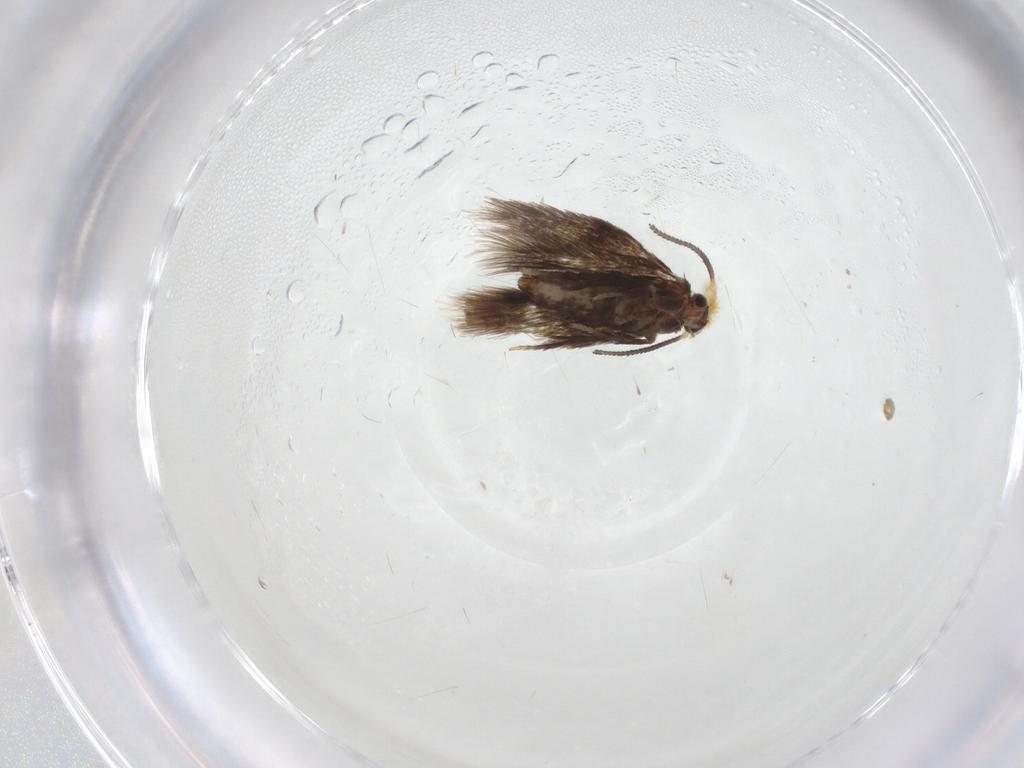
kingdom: Animalia
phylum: Arthropoda
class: Insecta
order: Lepidoptera
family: Nepticulidae
